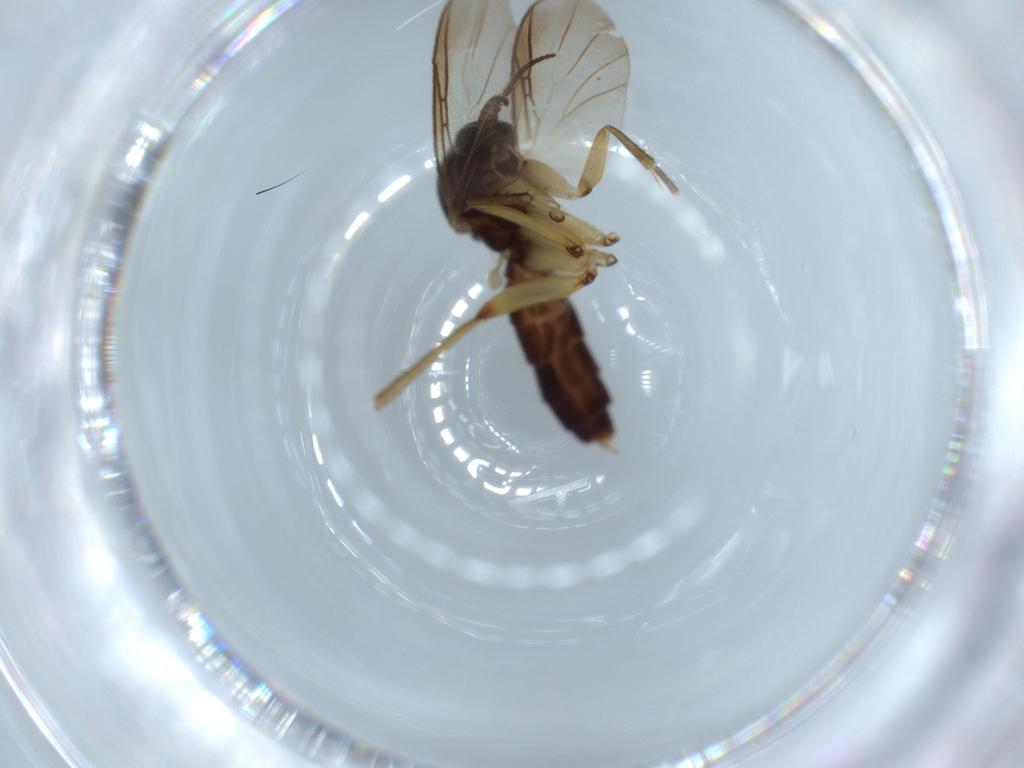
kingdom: Animalia
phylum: Arthropoda
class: Insecta
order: Diptera
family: Ceratopogonidae
